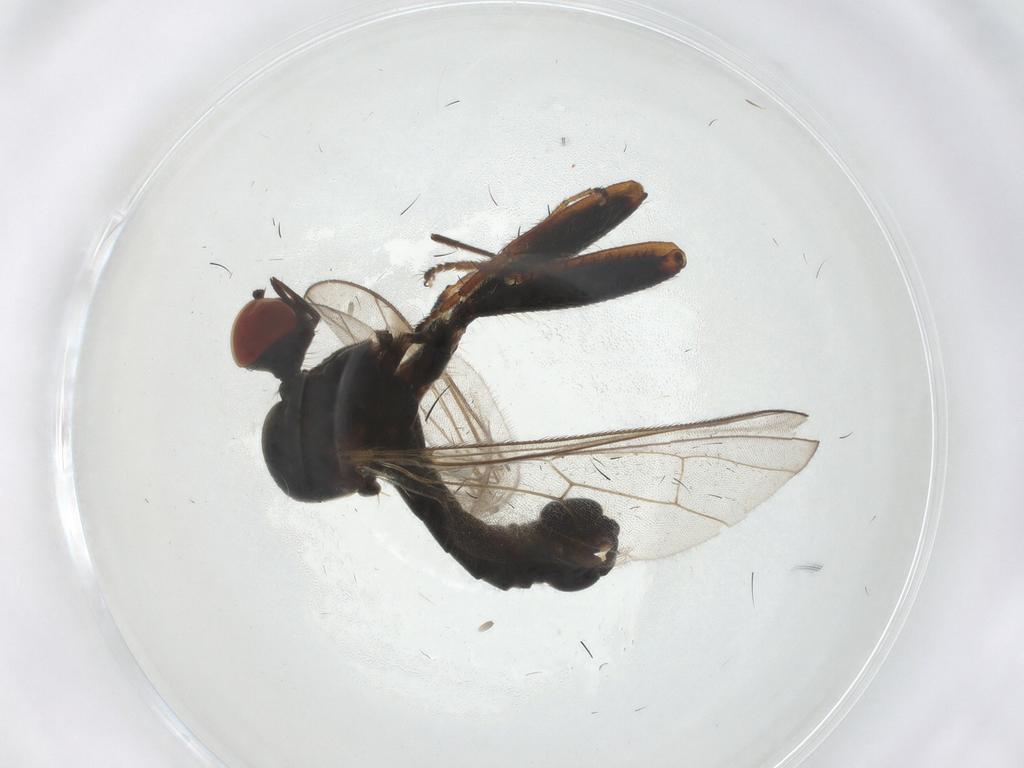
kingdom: Animalia
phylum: Arthropoda
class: Insecta
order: Diptera
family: Hybotidae
